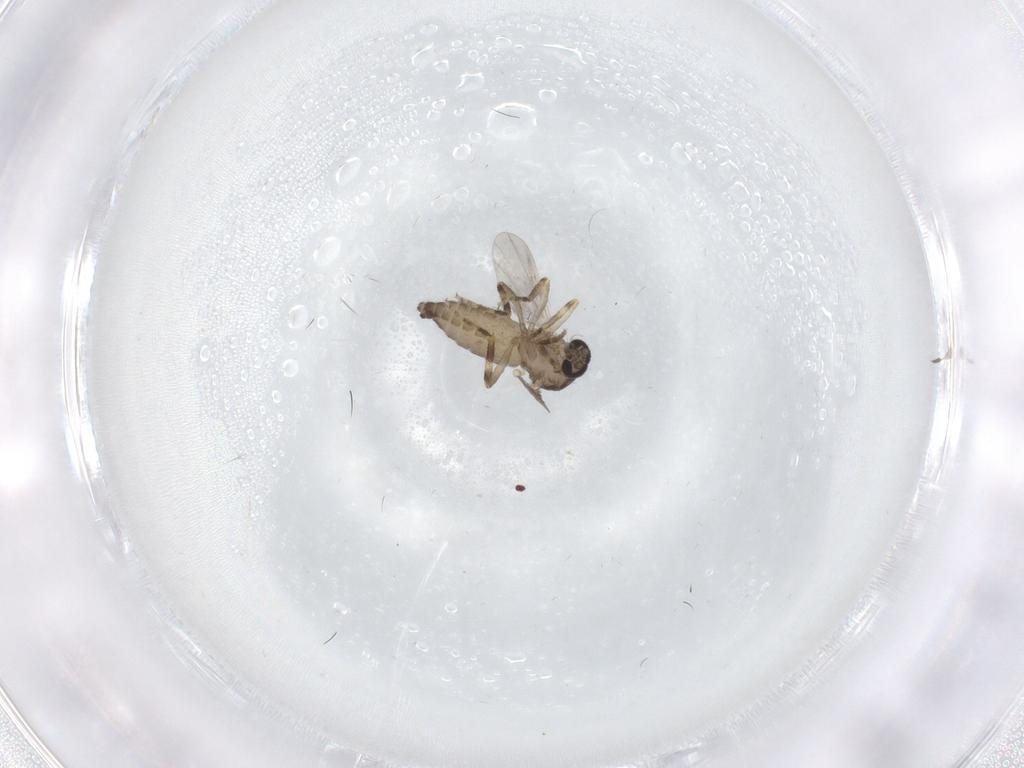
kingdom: Animalia
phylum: Arthropoda
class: Insecta
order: Diptera
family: Ceratopogonidae
